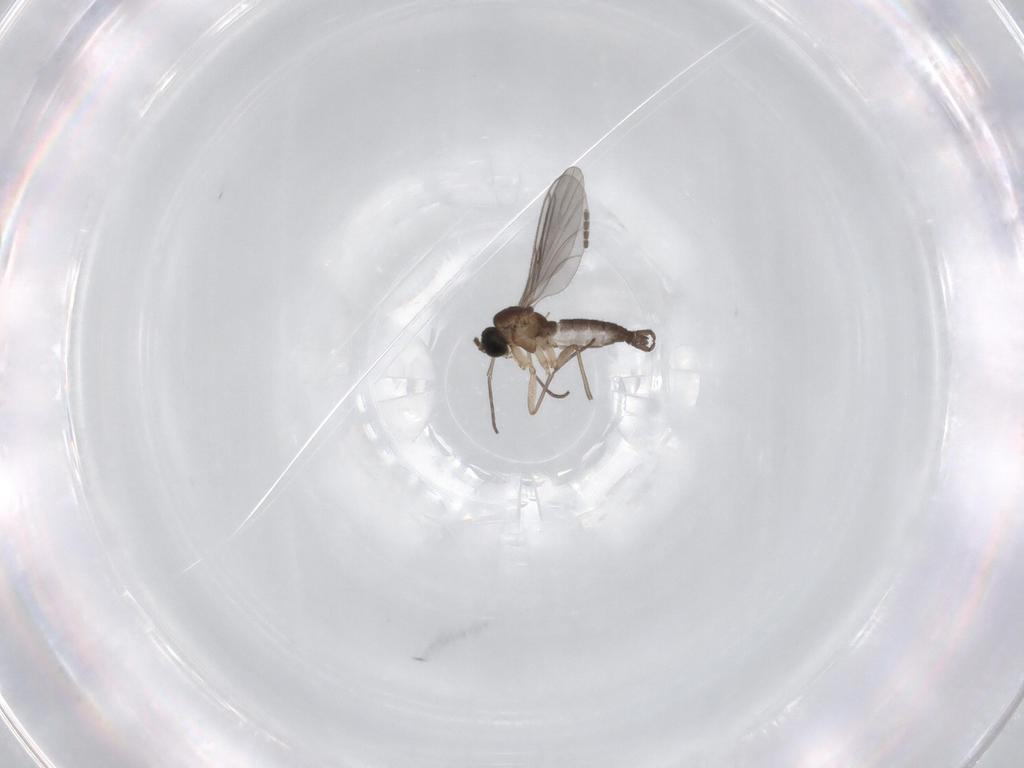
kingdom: Animalia
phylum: Arthropoda
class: Insecta
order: Diptera
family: Sciaridae
